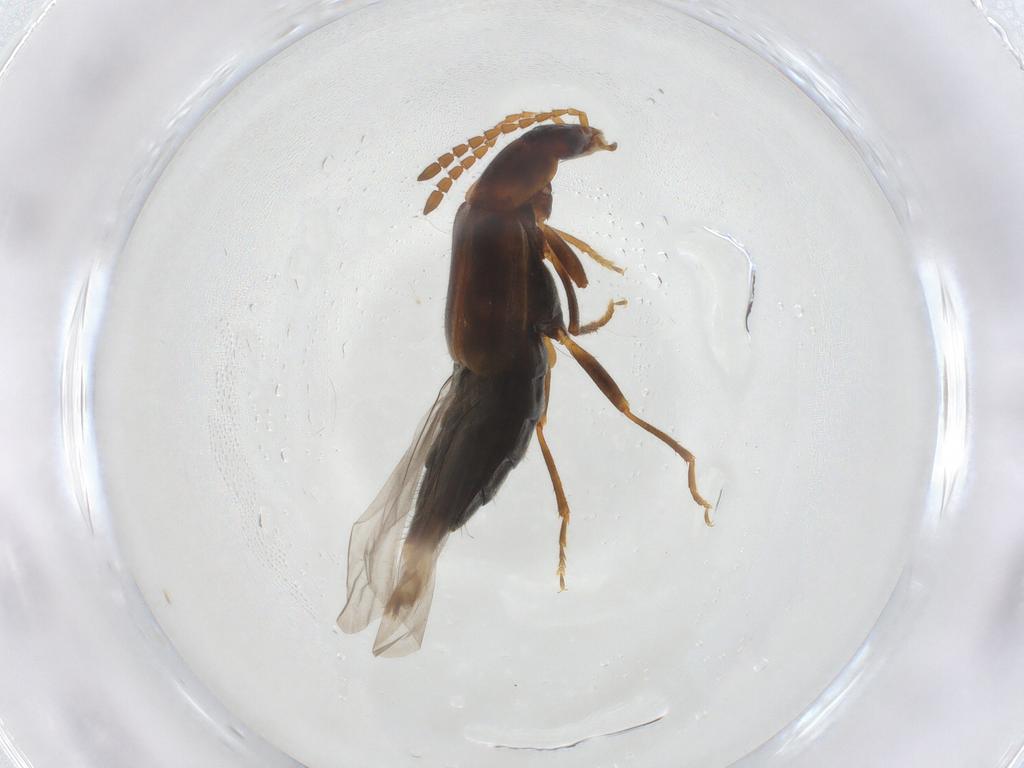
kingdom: Animalia
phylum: Arthropoda
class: Insecta
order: Coleoptera
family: Staphylinidae
